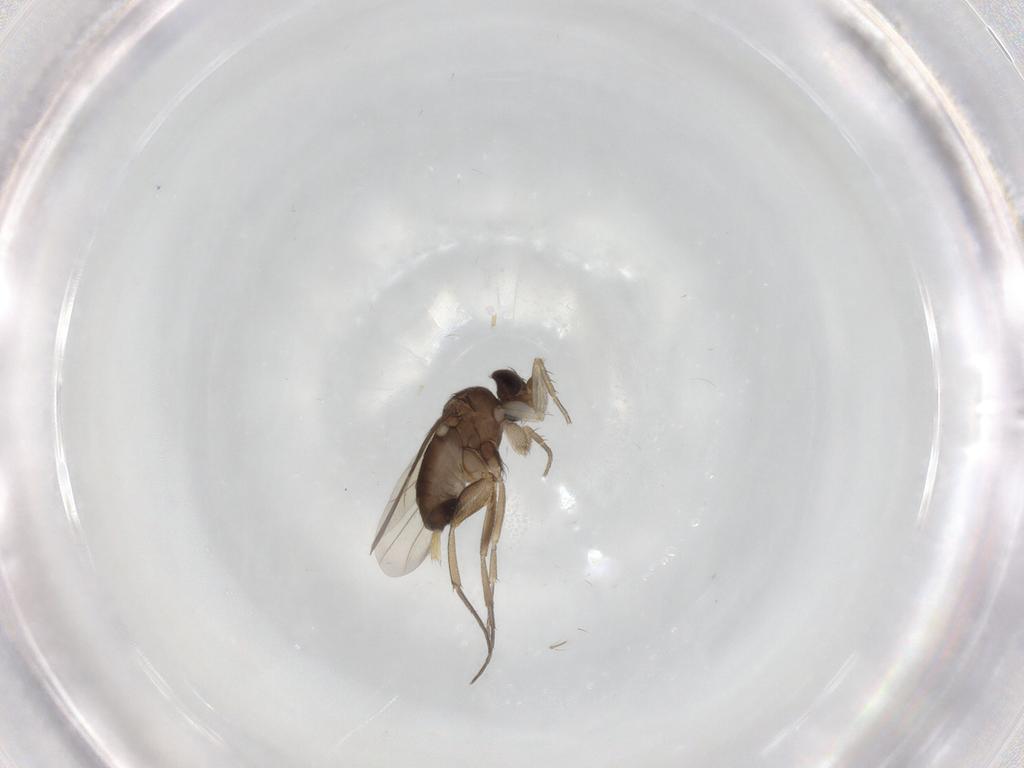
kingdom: Animalia
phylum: Arthropoda
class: Insecta
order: Diptera
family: Phoridae
